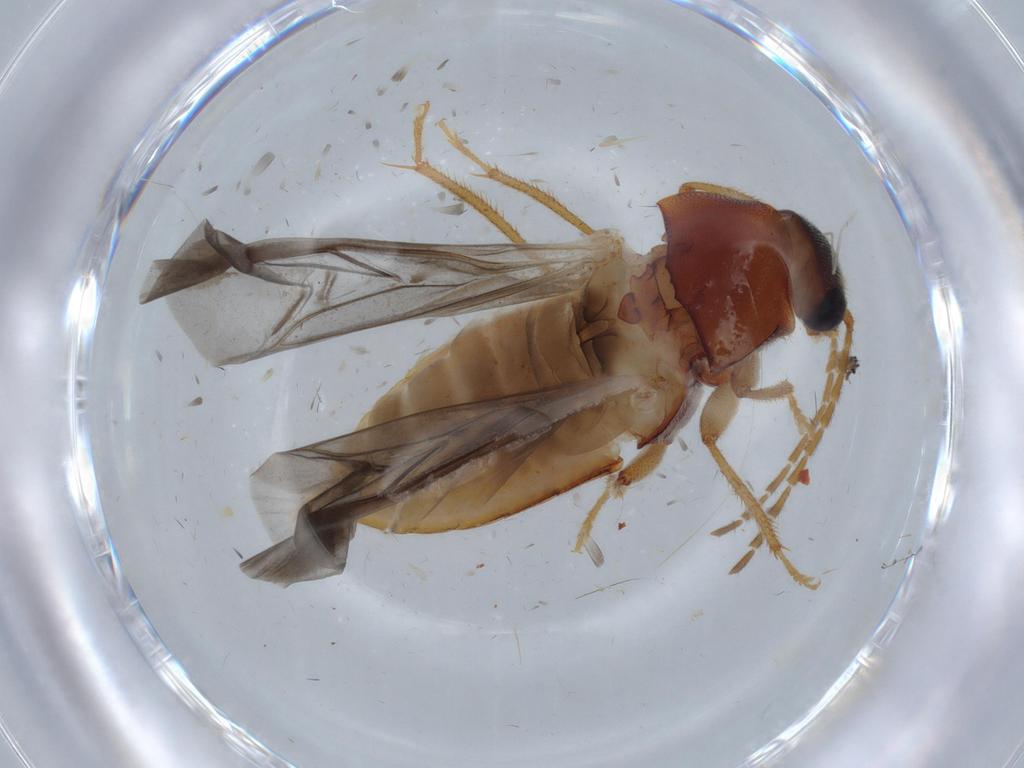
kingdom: Animalia
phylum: Arthropoda
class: Insecta
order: Coleoptera
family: Ptilodactylidae
